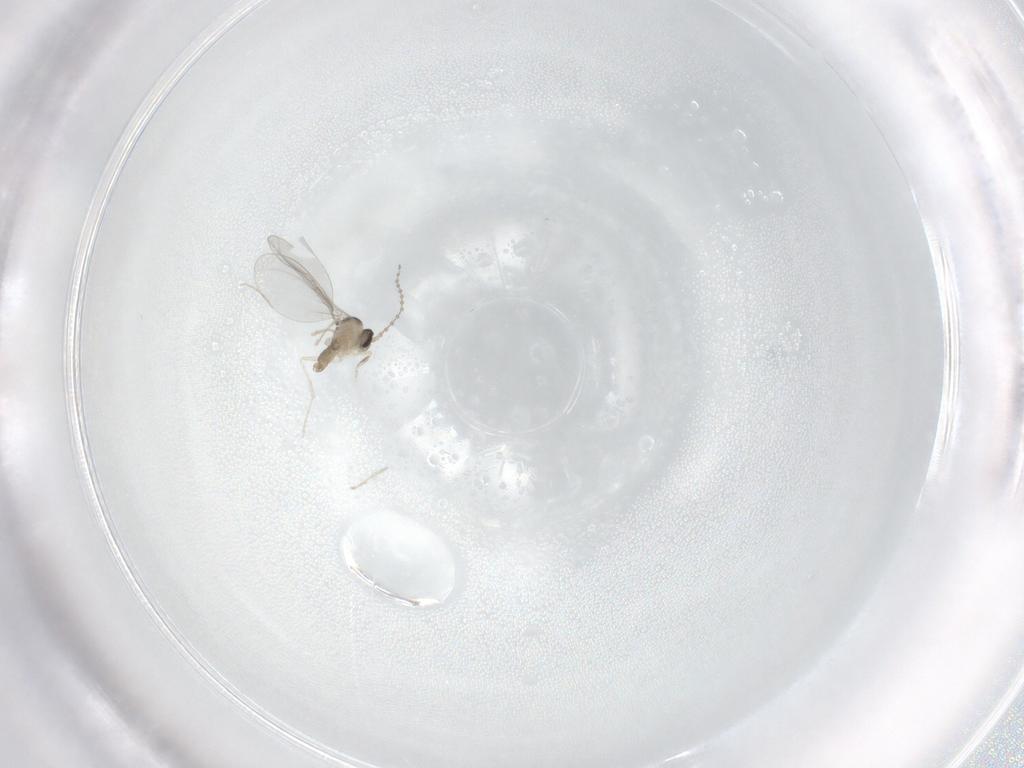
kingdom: Animalia
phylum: Arthropoda
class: Insecta
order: Diptera
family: Cecidomyiidae
